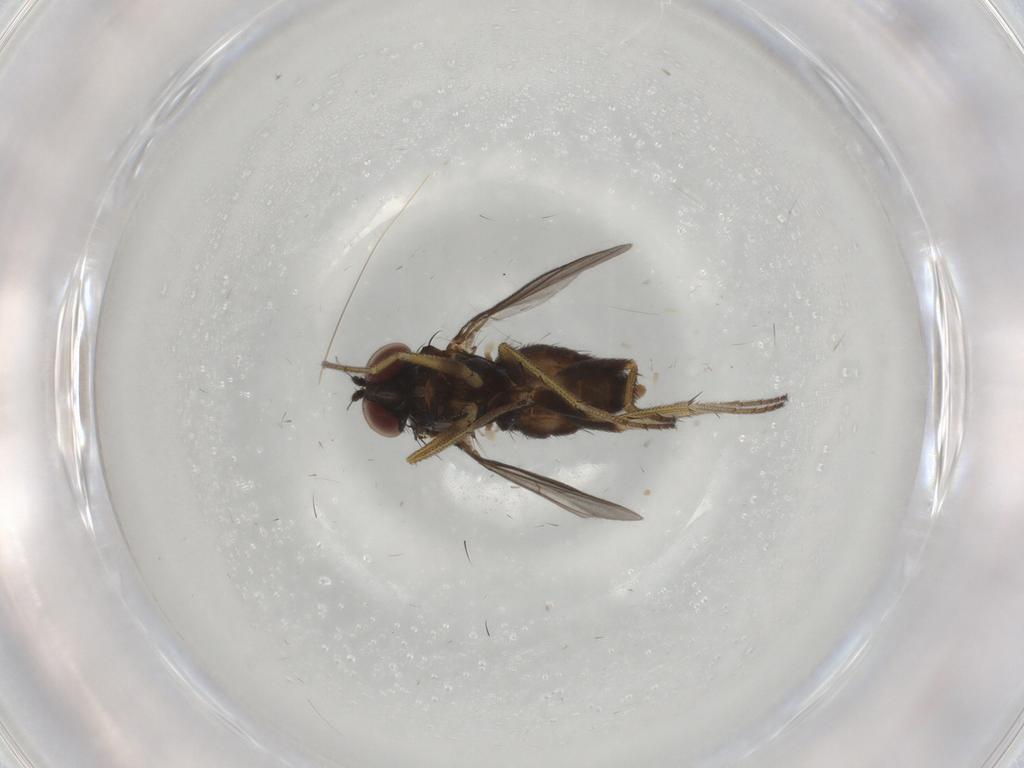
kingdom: Animalia
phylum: Arthropoda
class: Insecta
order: Diptera
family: Dolichopodidae
